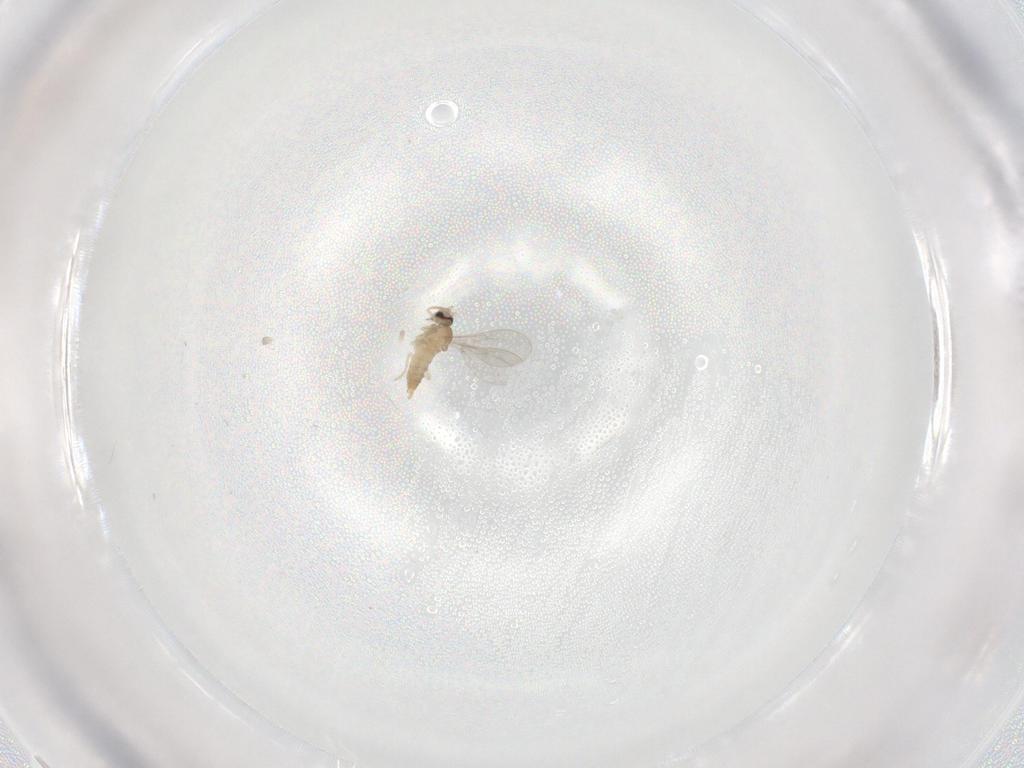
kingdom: Animalia
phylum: Arthropoda
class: Insecta
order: Diptera
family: Cecidomyiidae
